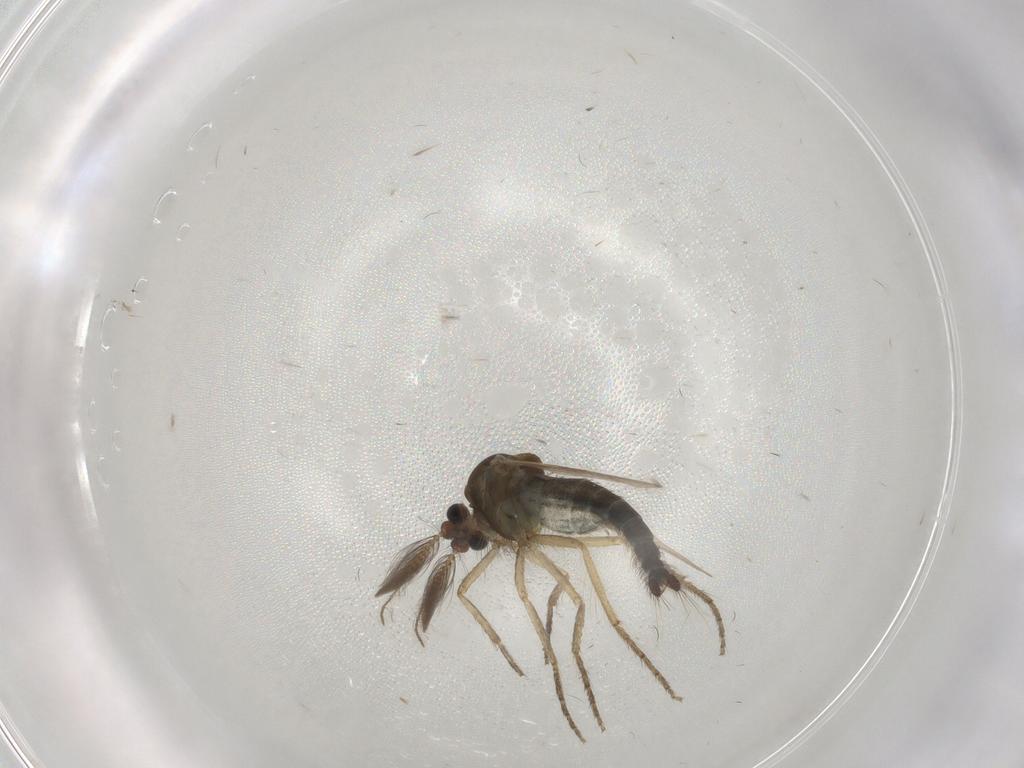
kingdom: Animalia
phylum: Arthropoda
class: Insecta
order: Diptera
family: Ceratopogonidae
